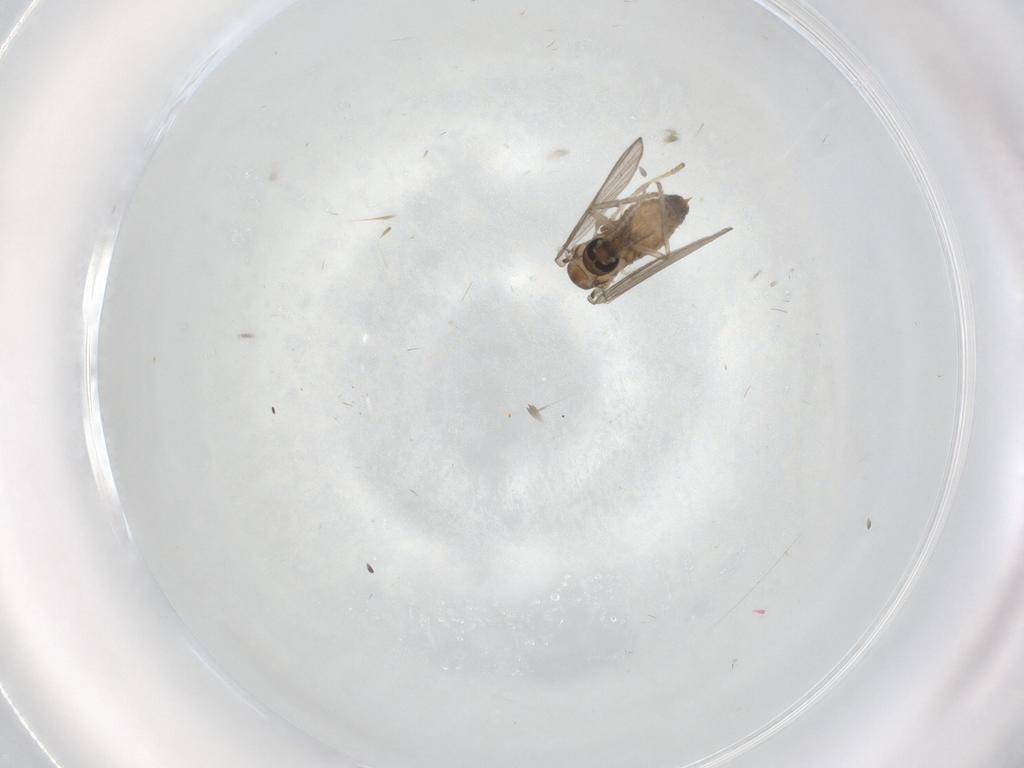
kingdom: Animalia
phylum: Arthropoda
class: Insecta
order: Diptera
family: Psychodidae
